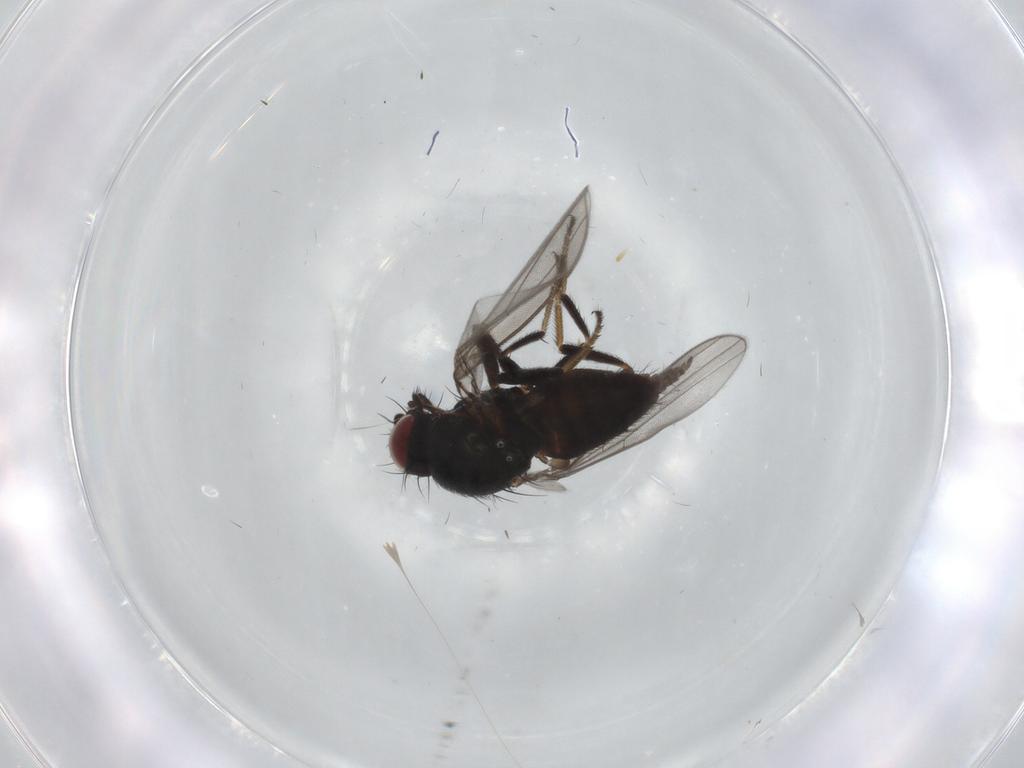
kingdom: Animalia
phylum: Arthropoda
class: Insecta
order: Diptera
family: Milichiidae
